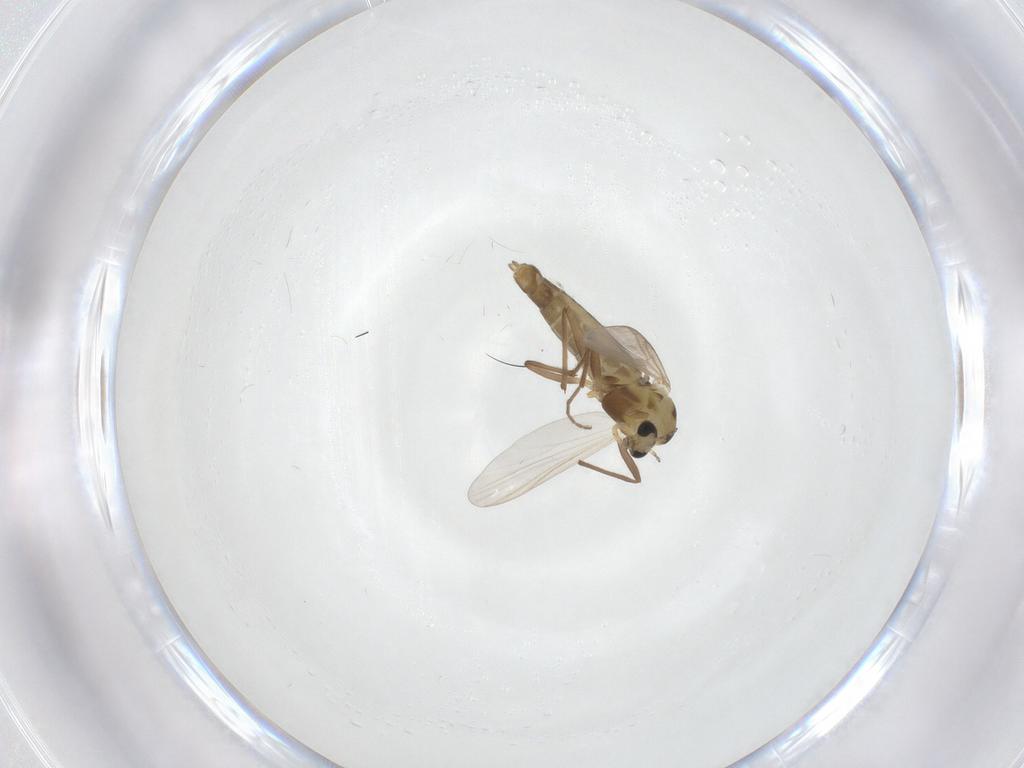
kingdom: Animalia
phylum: Arthropoda
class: Insecta
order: Diptera
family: Chironomidae
